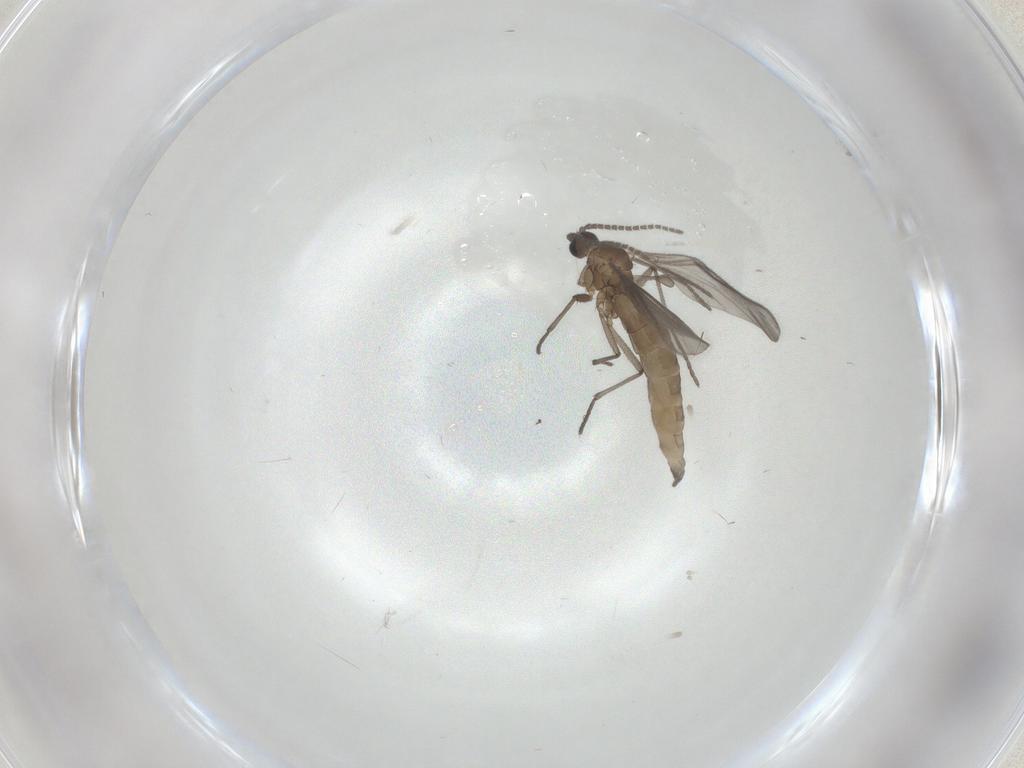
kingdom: Animalia
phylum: Arthropoda
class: Insecta
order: Diptera
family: Sciaridae
